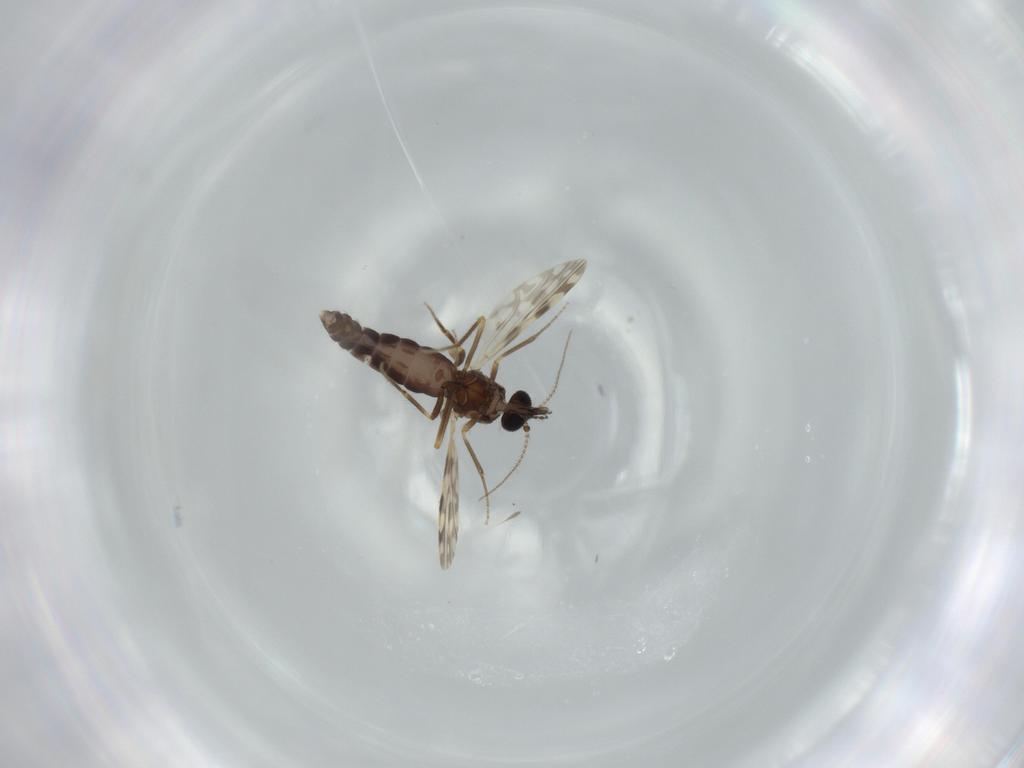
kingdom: Animalia
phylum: Arthropoda
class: Insecta
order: Diptera
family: Ceratopogonidae
